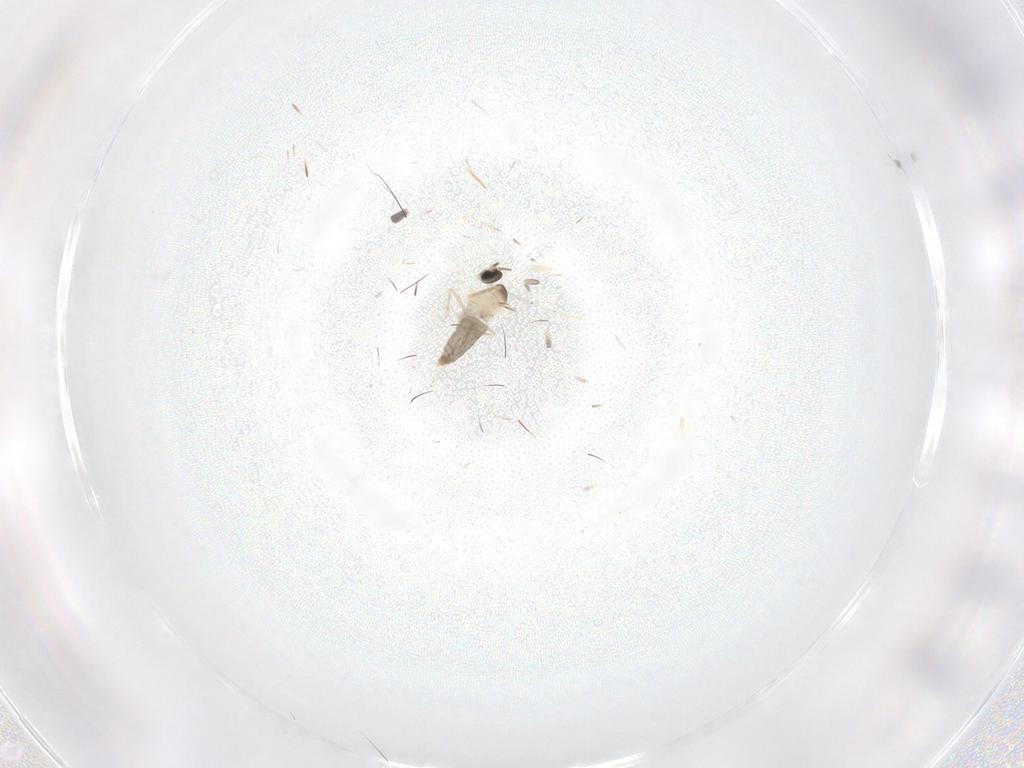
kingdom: Animalia
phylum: Arthropoda
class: Insecta
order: Diptera
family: Cecidomyiidae
